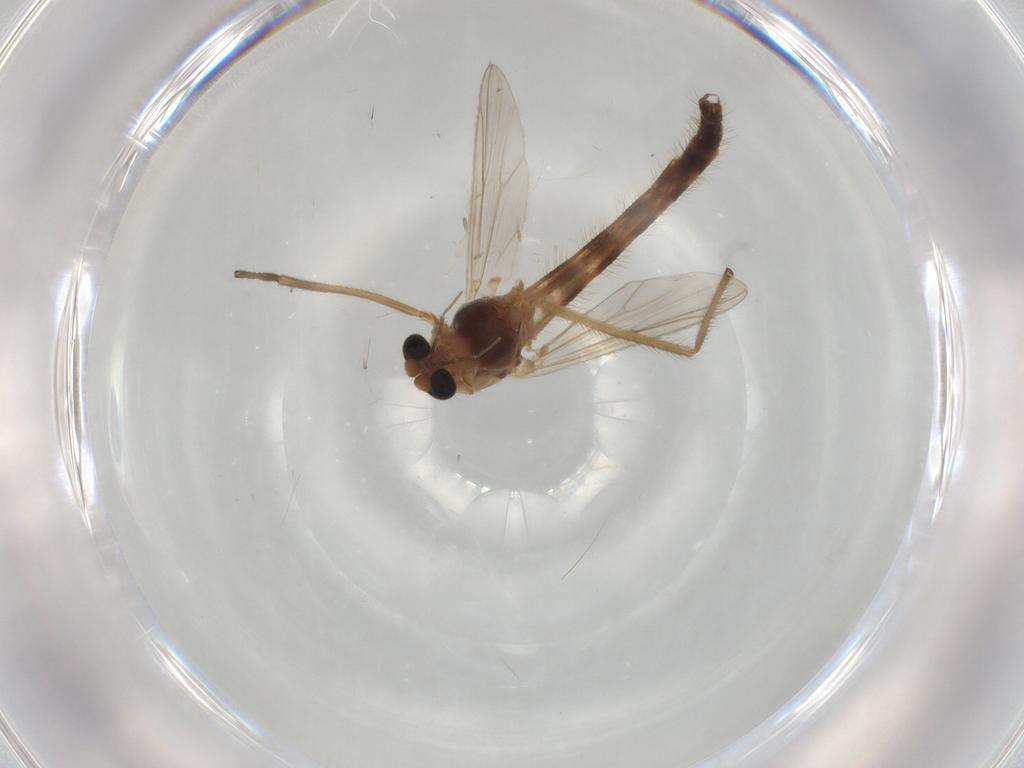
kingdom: Animalia
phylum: Arthropoda
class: Insecta
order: Diptera
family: Chironomidae
